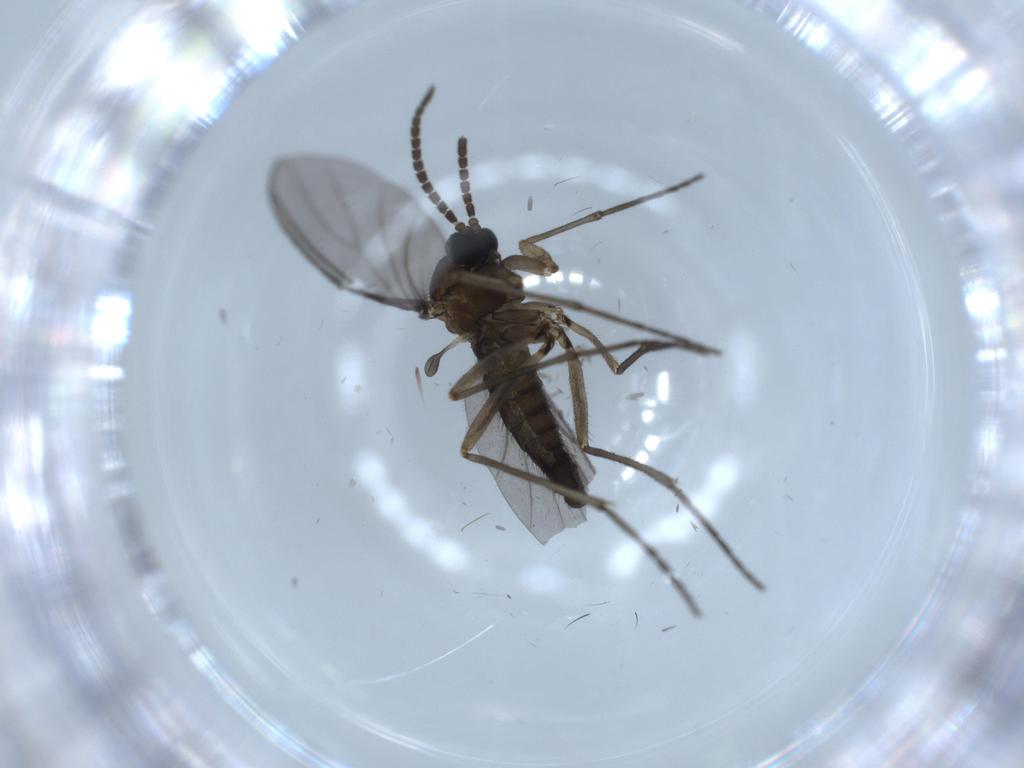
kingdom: Animalia
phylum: Arthropoda
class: Insecta
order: Diptera
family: Sciaridae
